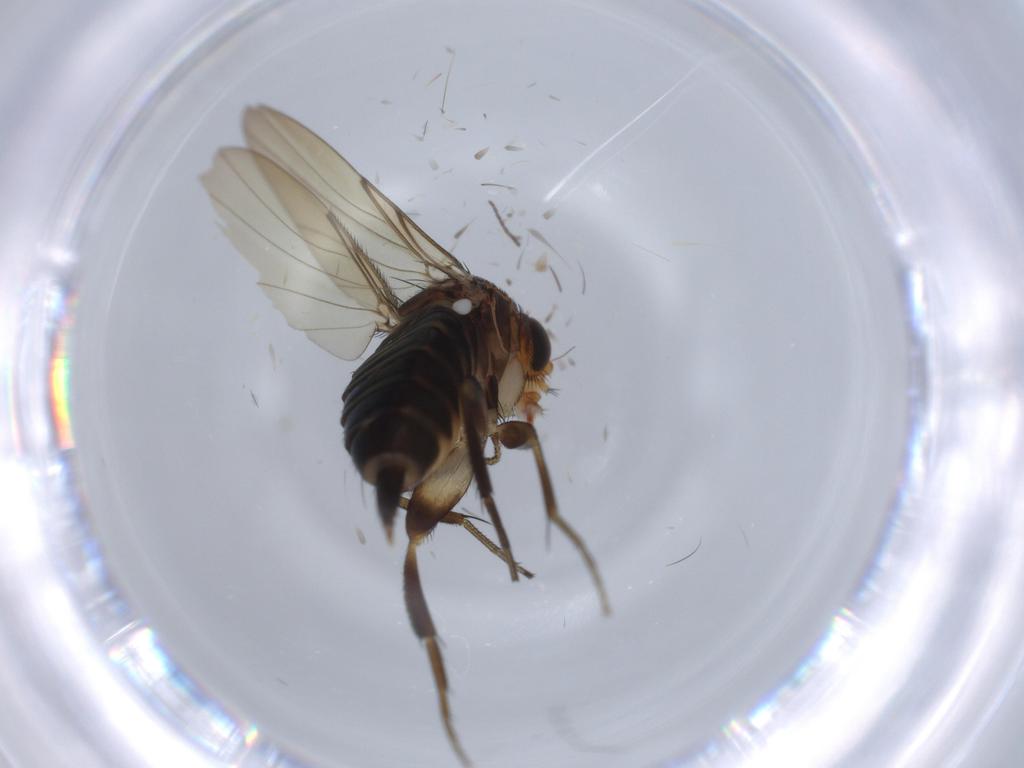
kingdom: Animalia
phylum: Arthropoda
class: Insecta
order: Diptera
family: Phoridae
